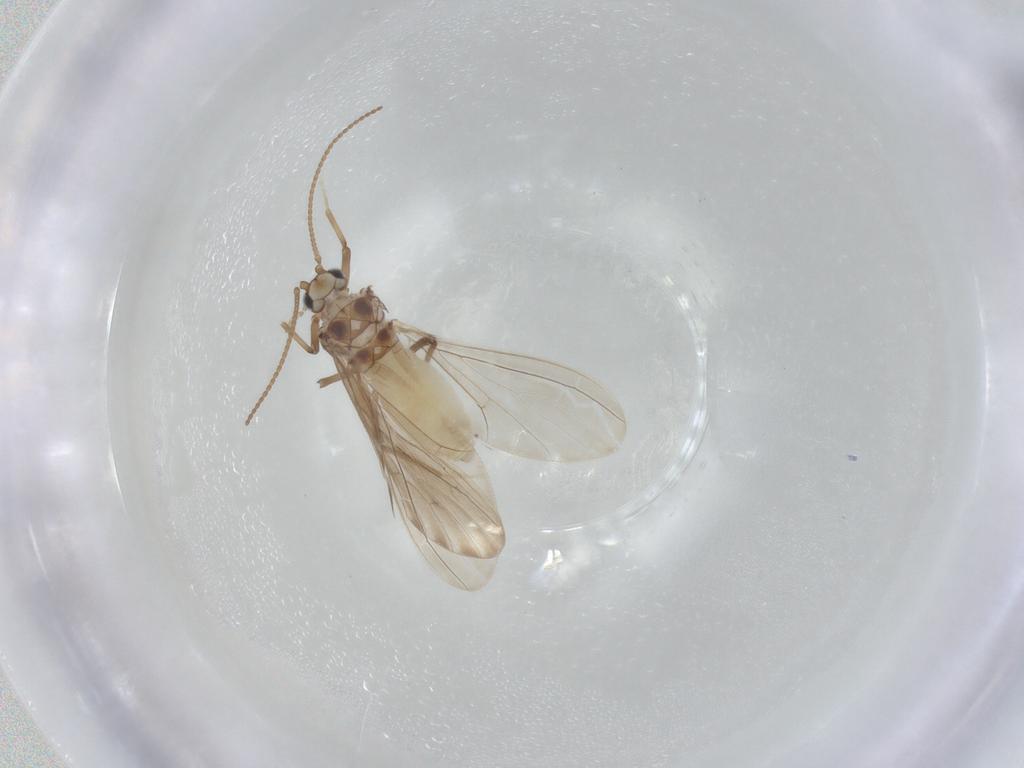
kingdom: Animalia
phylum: Arthropoda
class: Insecta
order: Neuroptera
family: Coniopterygidae
